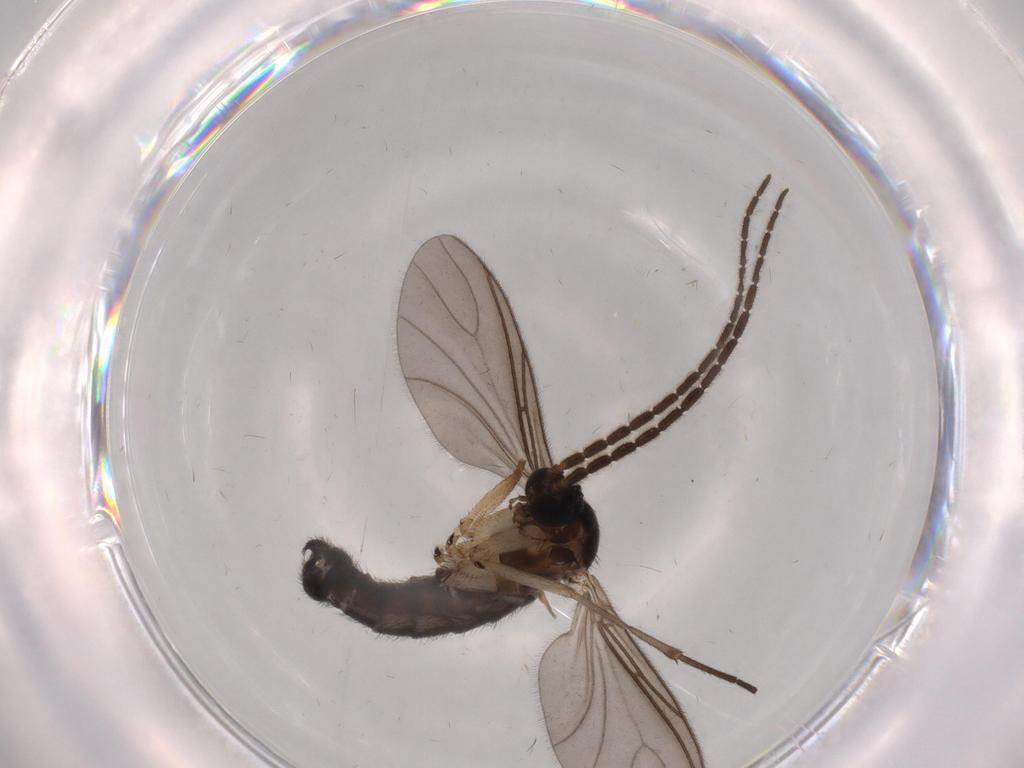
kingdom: Animalia
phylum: Arthropoda
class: Insecta
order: Diptera
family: Sciaridae
